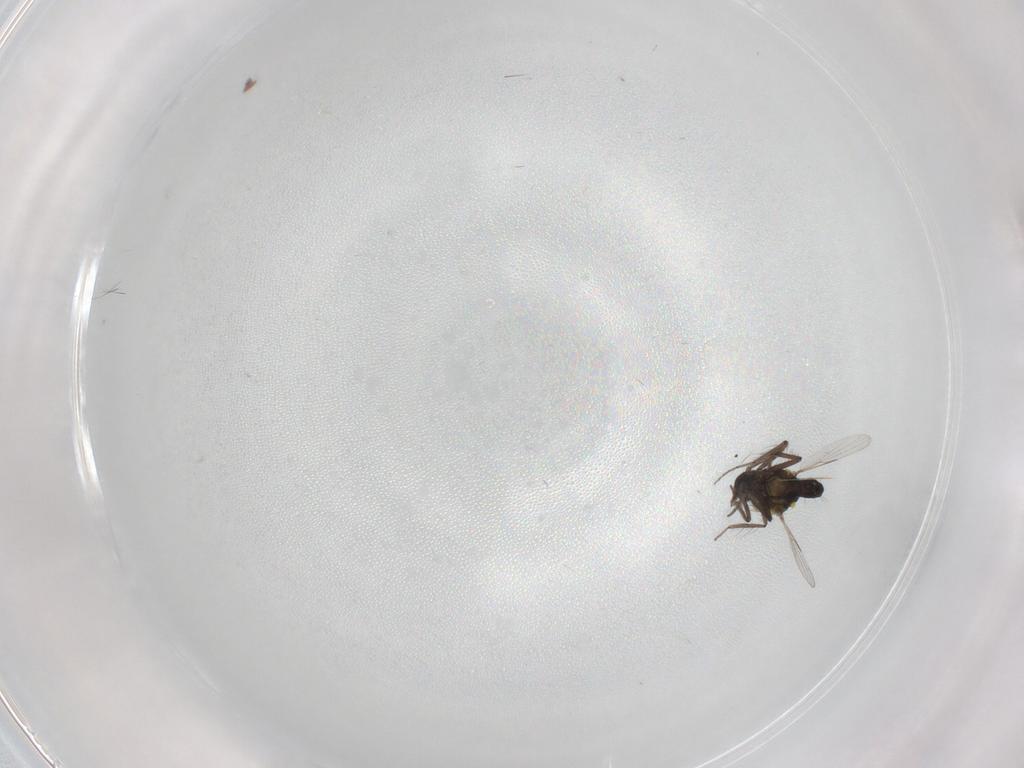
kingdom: Animalia
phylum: Arthropoda
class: Insecta
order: Diptera
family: Ceratopogonidae
